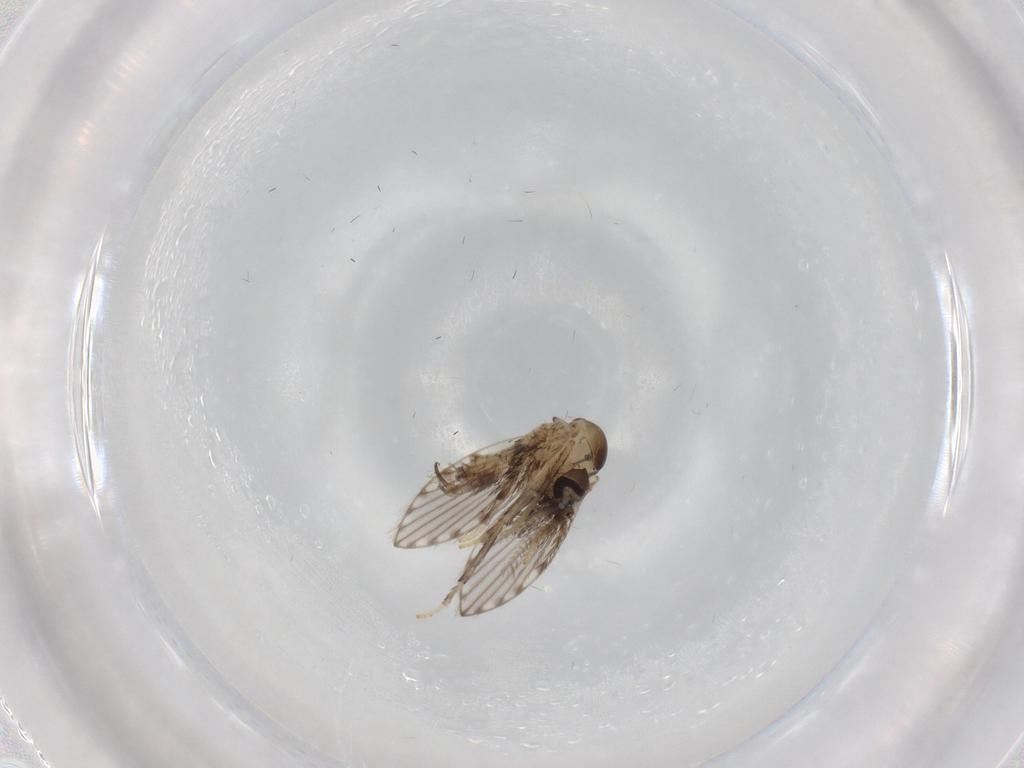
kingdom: Animalia
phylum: Arthropoda
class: Insecta
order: Diptera
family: Psychodidae
